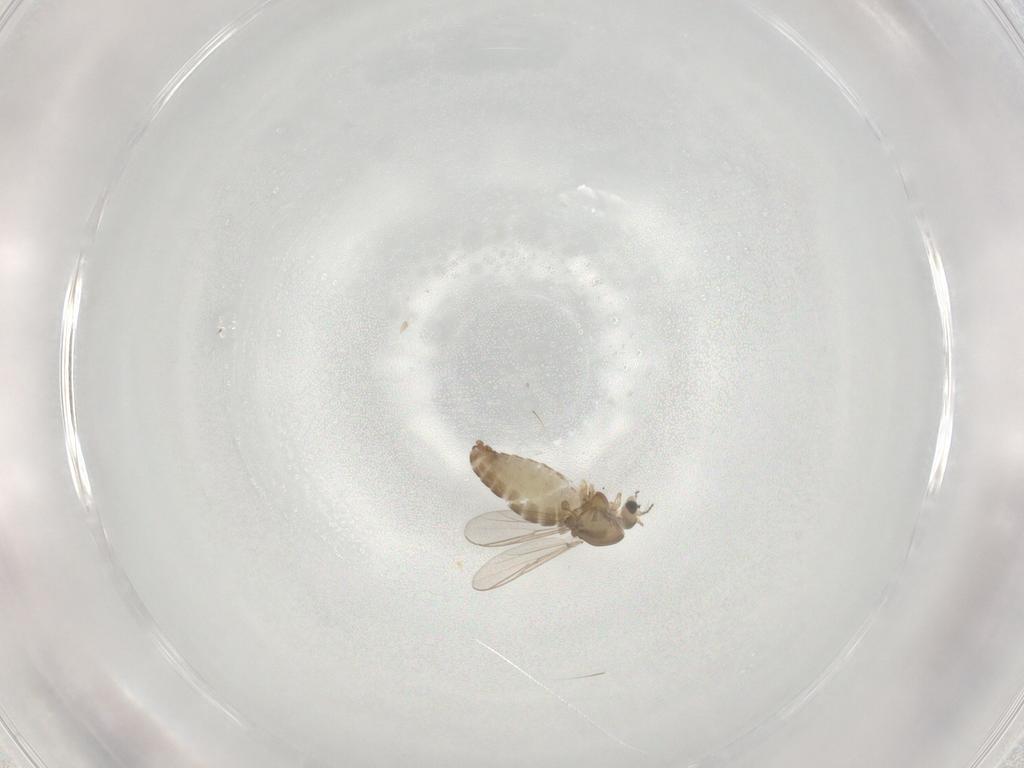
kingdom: Animalia
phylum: Arthropoda
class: Insecta
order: Diptera
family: Chironomidae
